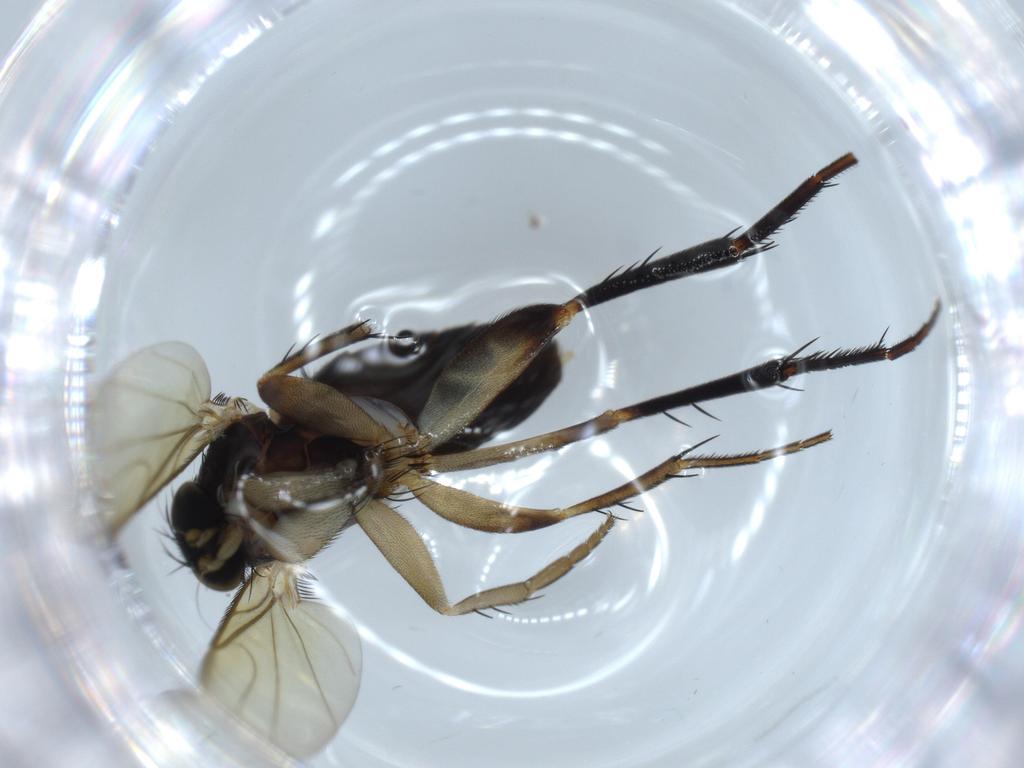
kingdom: Animalia
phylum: Arthropoda
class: Insecta
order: Diptera
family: Phoridae
